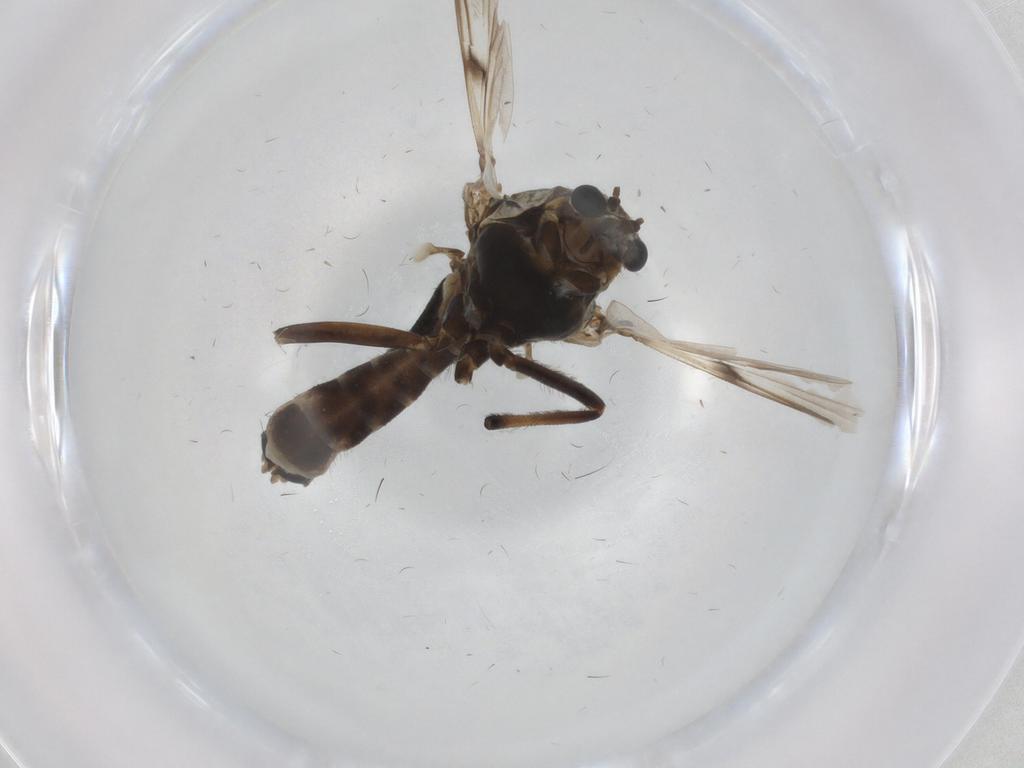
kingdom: Animalia
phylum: Arthropoda
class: Insecta
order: Diptera
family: Chironomidae
